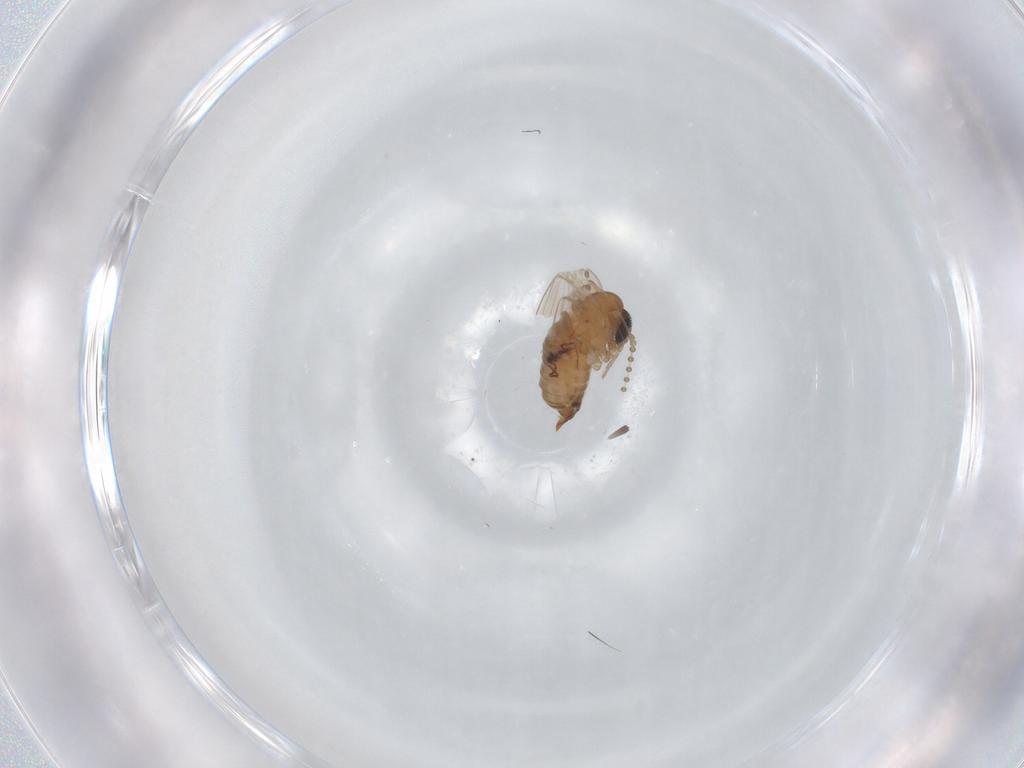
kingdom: Animalia
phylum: Arthropoda
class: Insecta
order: Diptera
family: Psychodidae
